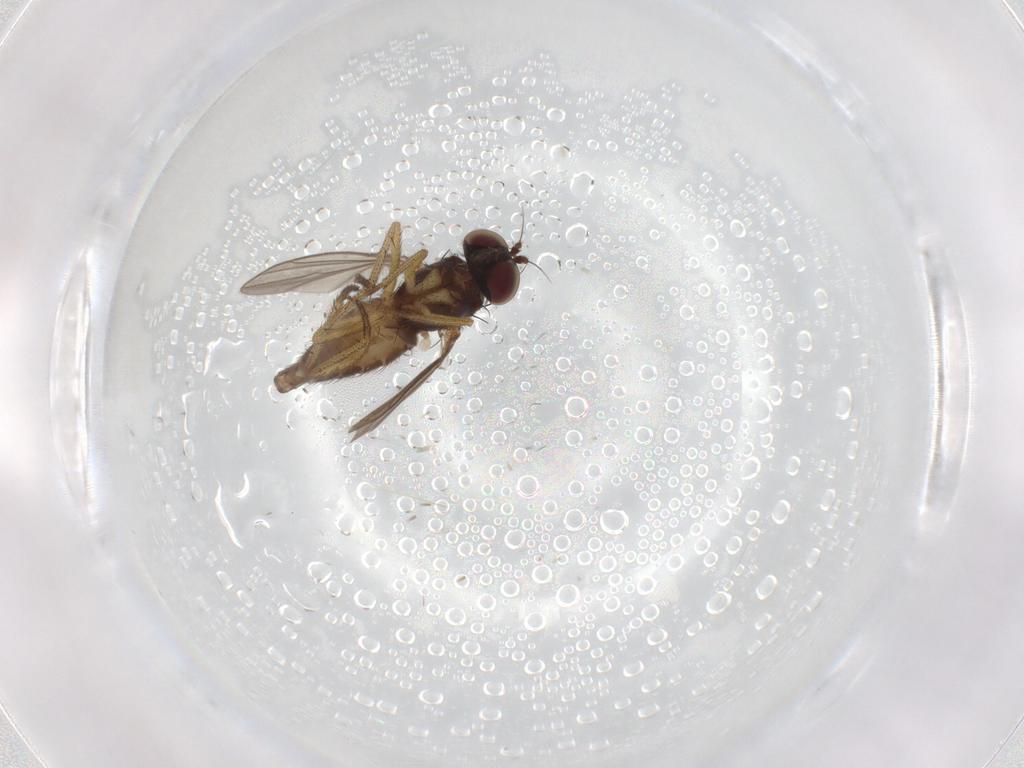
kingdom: Animalia
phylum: Arthropoda
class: Insecta
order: Diptera
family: Chironomidae
